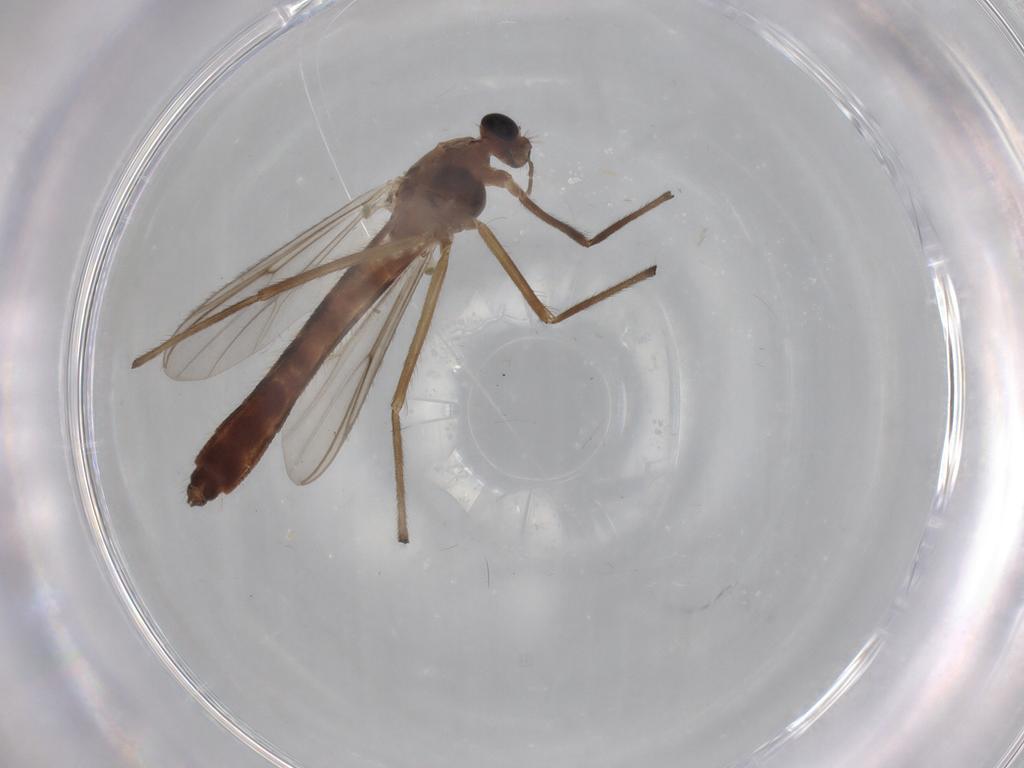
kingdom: Animalia
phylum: Arthropoda
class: Insecta
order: Diptera
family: Chironomidae
